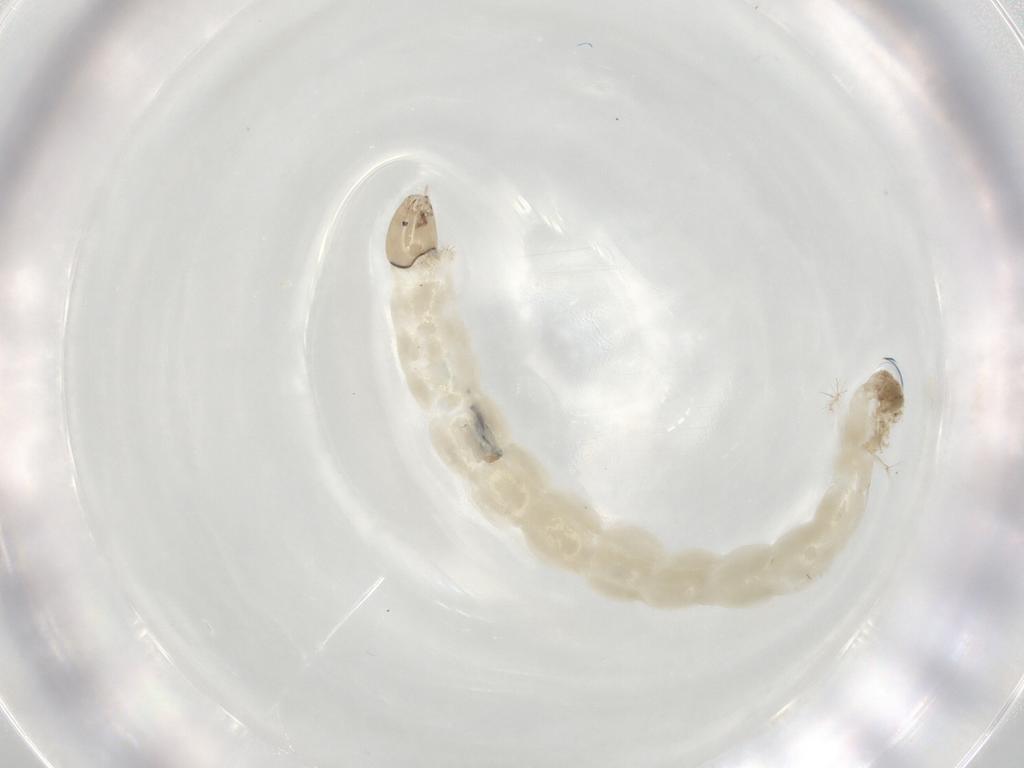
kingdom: Animalia
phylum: Arthropoda
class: Insecta
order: Diptera
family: Chironomidae
